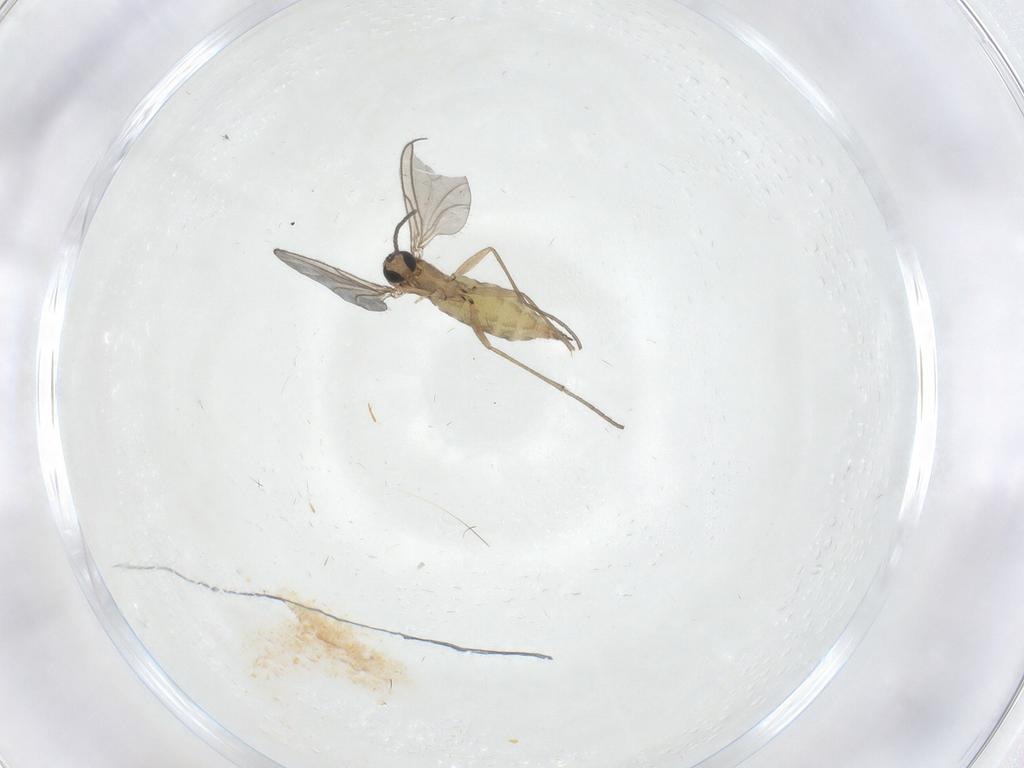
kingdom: Animalia
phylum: Arthropoda
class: Insecta
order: Diptera
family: Sciaridae
